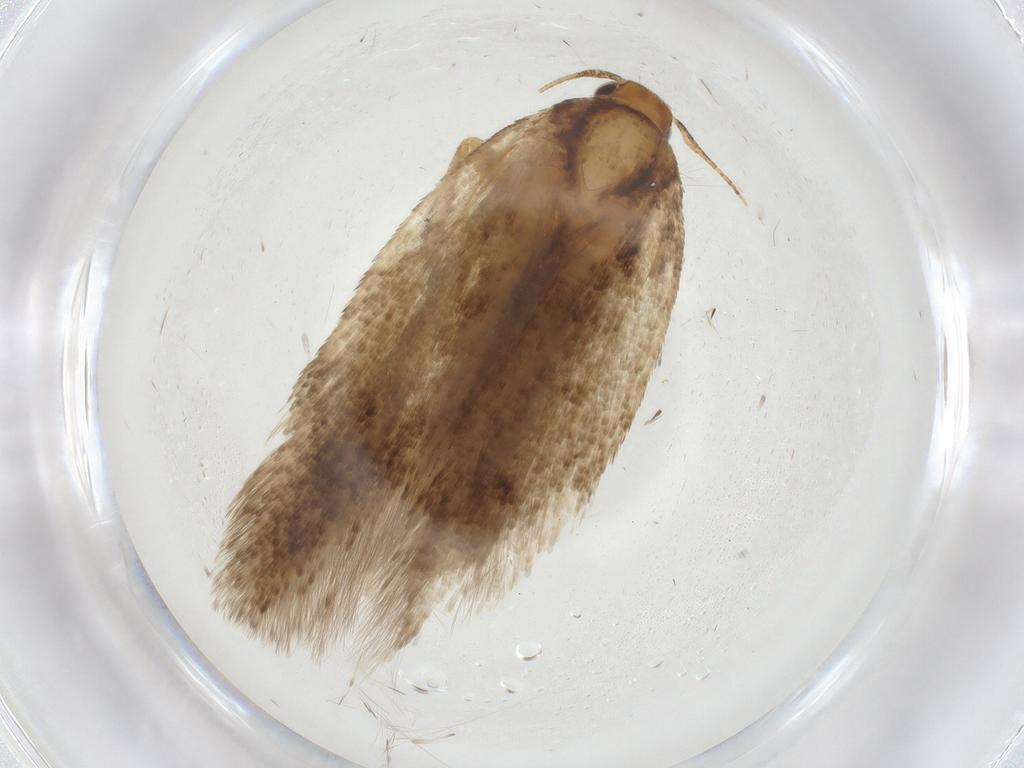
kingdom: Animalia
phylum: Arthropoda
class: Insecta
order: Lepidoptera
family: Gelechiidae
